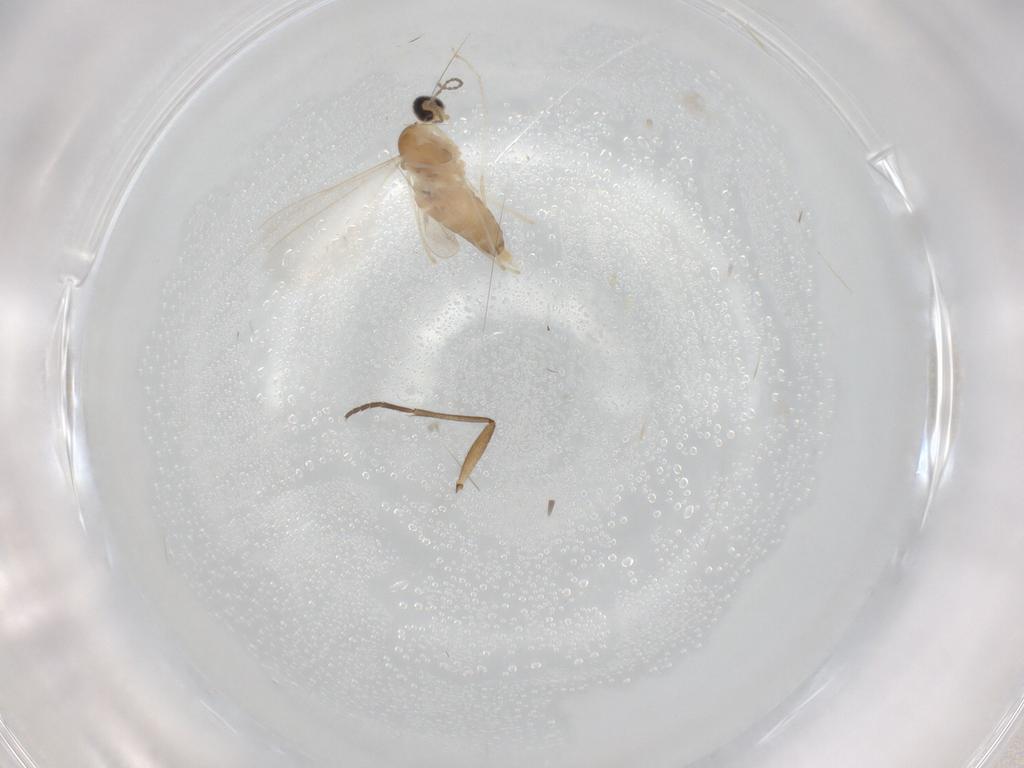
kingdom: Animalia
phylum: Arthropoda
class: Insecta
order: Diptera
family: Cecidomyiidae
